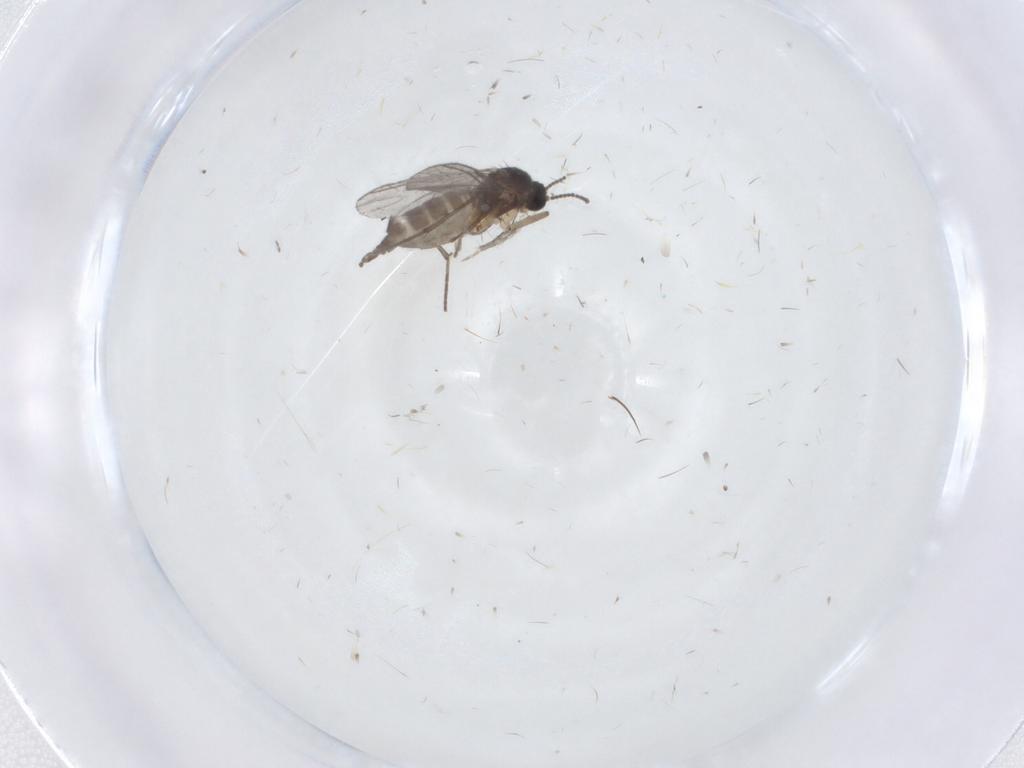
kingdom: Animalia
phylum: Arthropoda
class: Insecta
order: Diptera
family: Sciaridae
